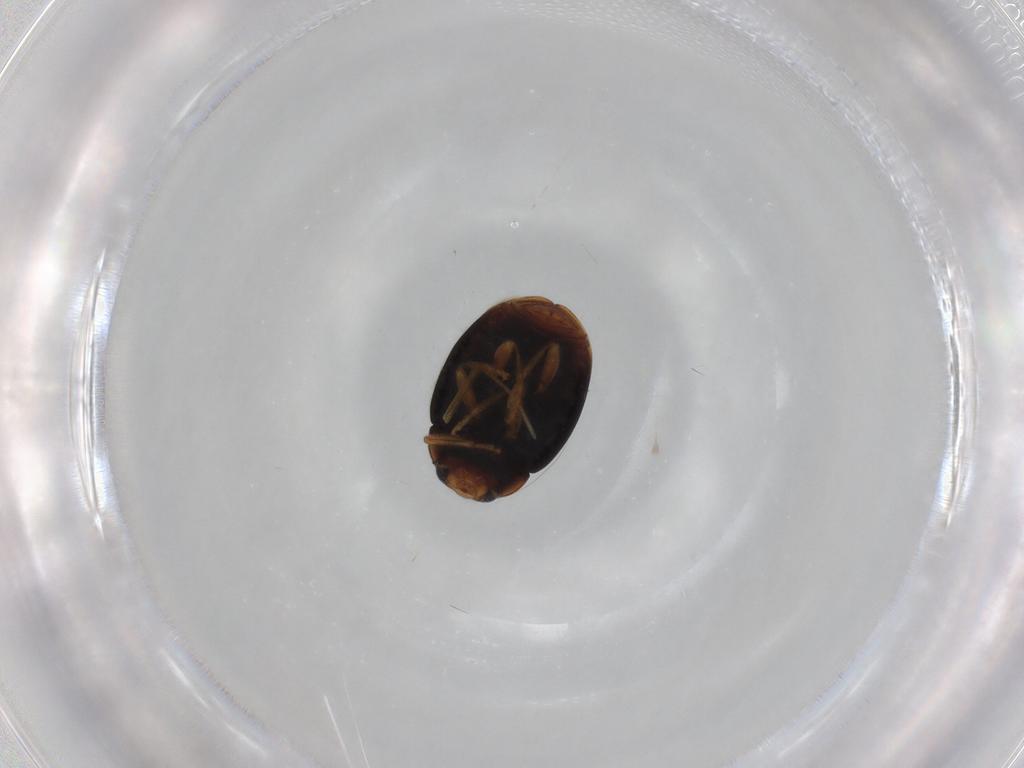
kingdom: Animalia
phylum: Arthropoda
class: Insecta
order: Coleoptera
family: Coccinellidae
